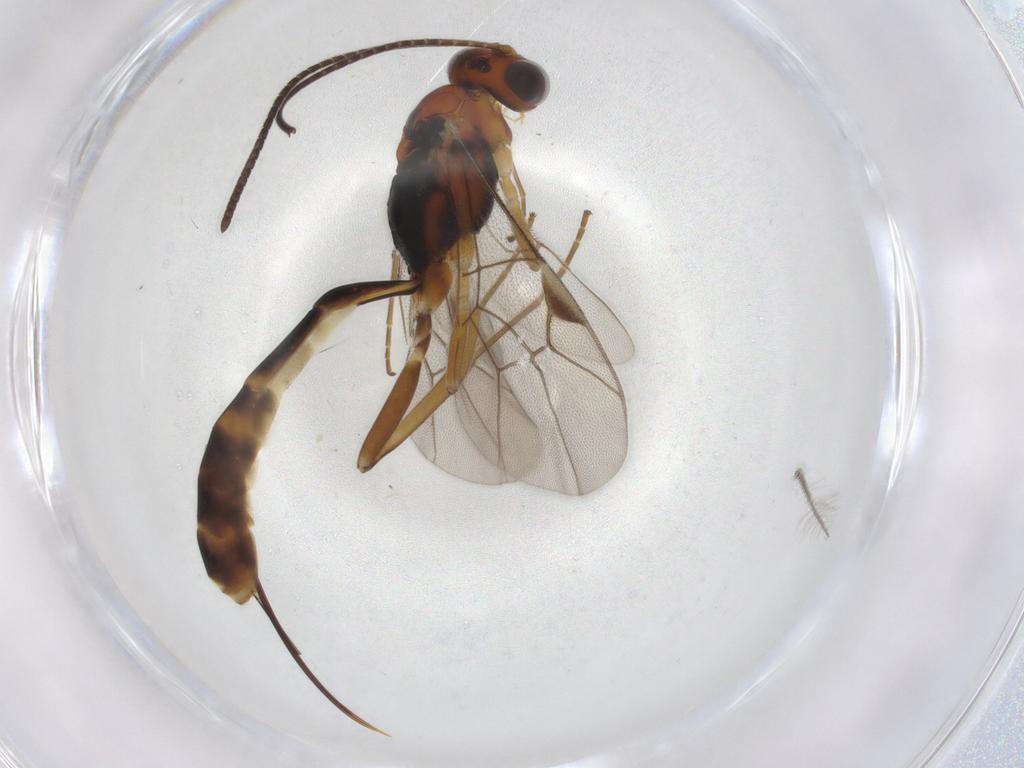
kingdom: Animalia
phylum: Arthropoda
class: Insecta
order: Hymenoptera
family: Ichneumonidae
